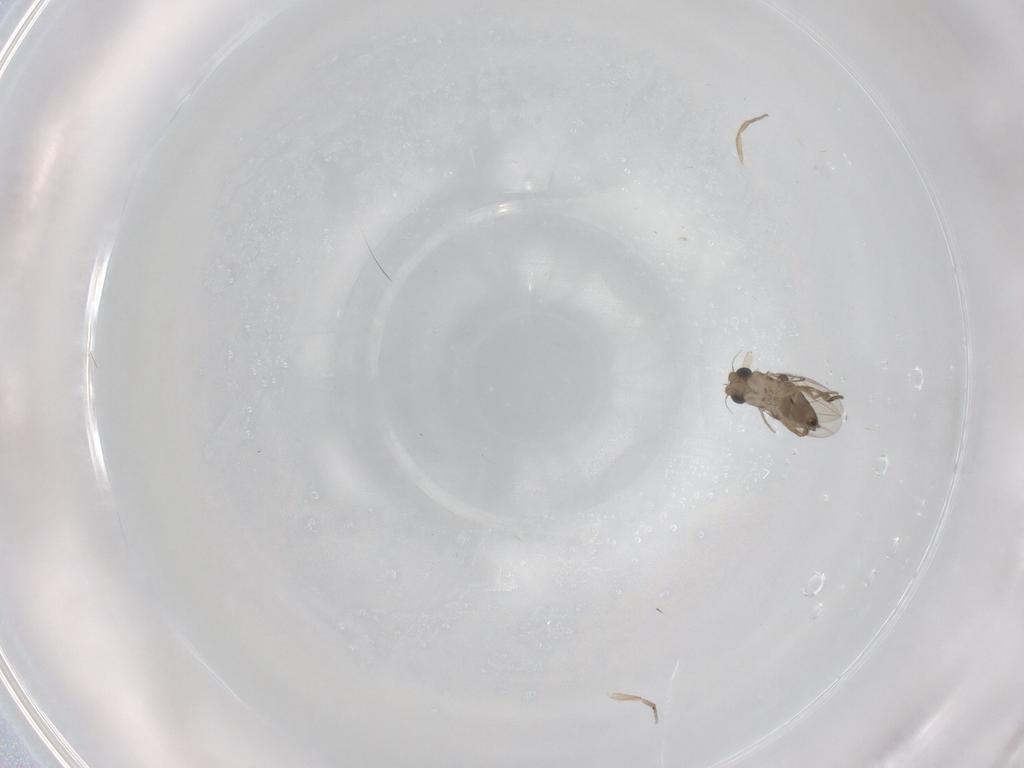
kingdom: Animalia
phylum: Arthropoda
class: Insecta
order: Diptera
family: Phoridae
